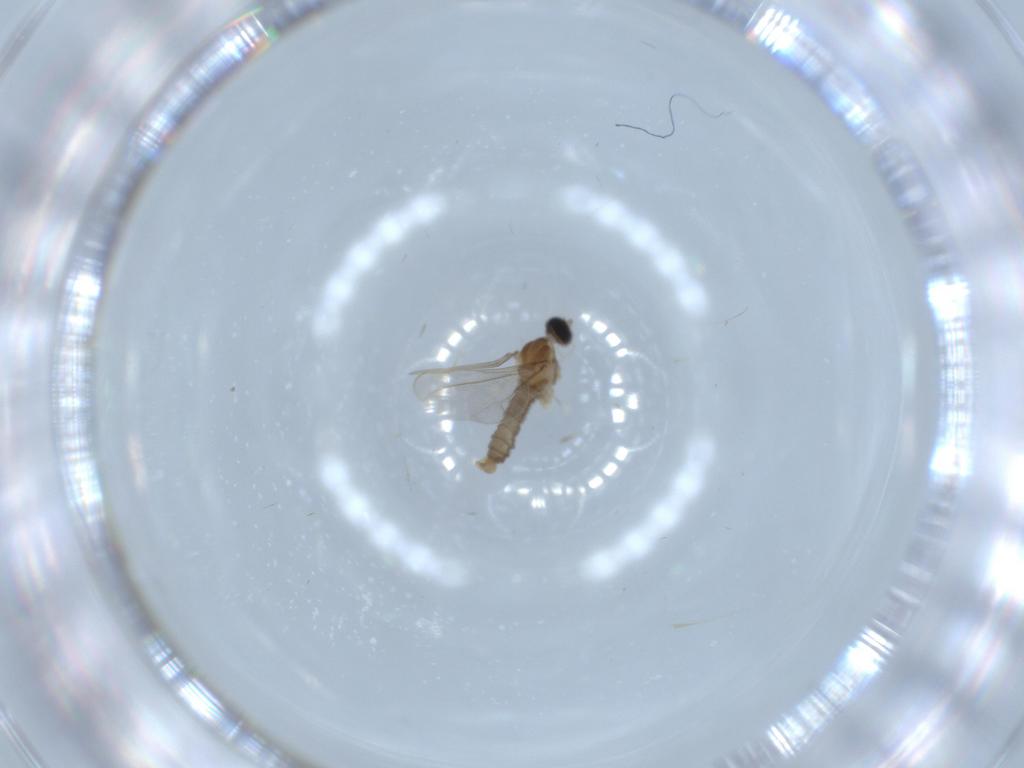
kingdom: Animalia
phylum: Arthropoda
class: Insecta
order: Diptera
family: Cecidomyiidae
